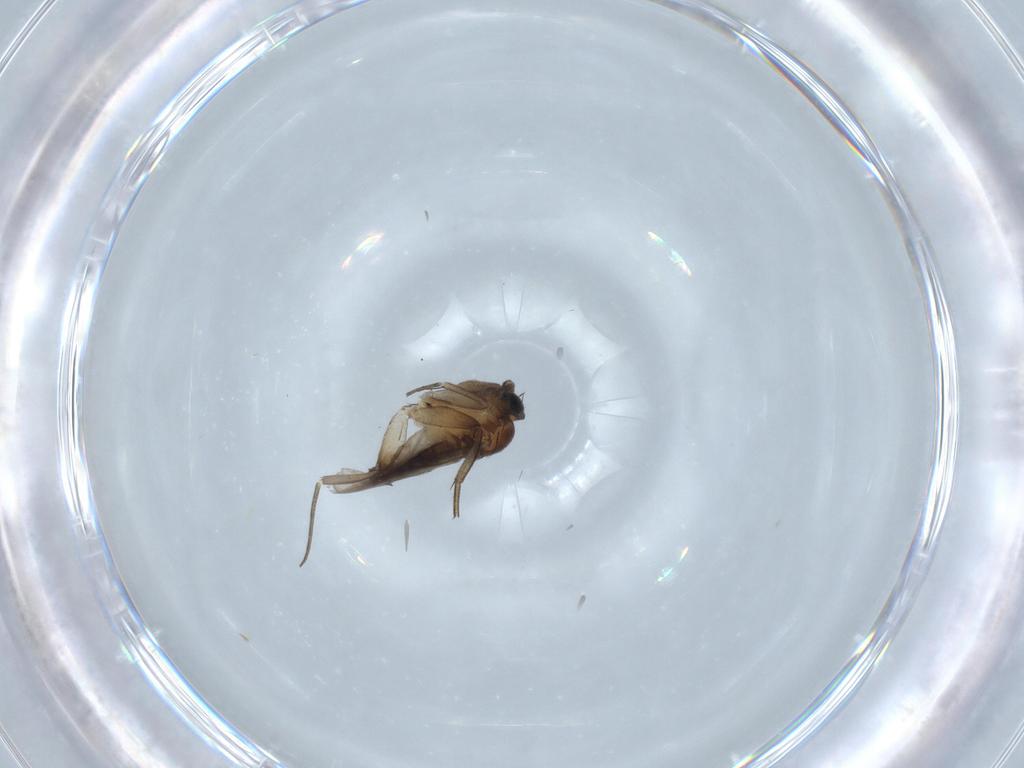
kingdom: Animalia
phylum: Arthropoda
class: Insecta
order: Diptera
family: Phoridae
